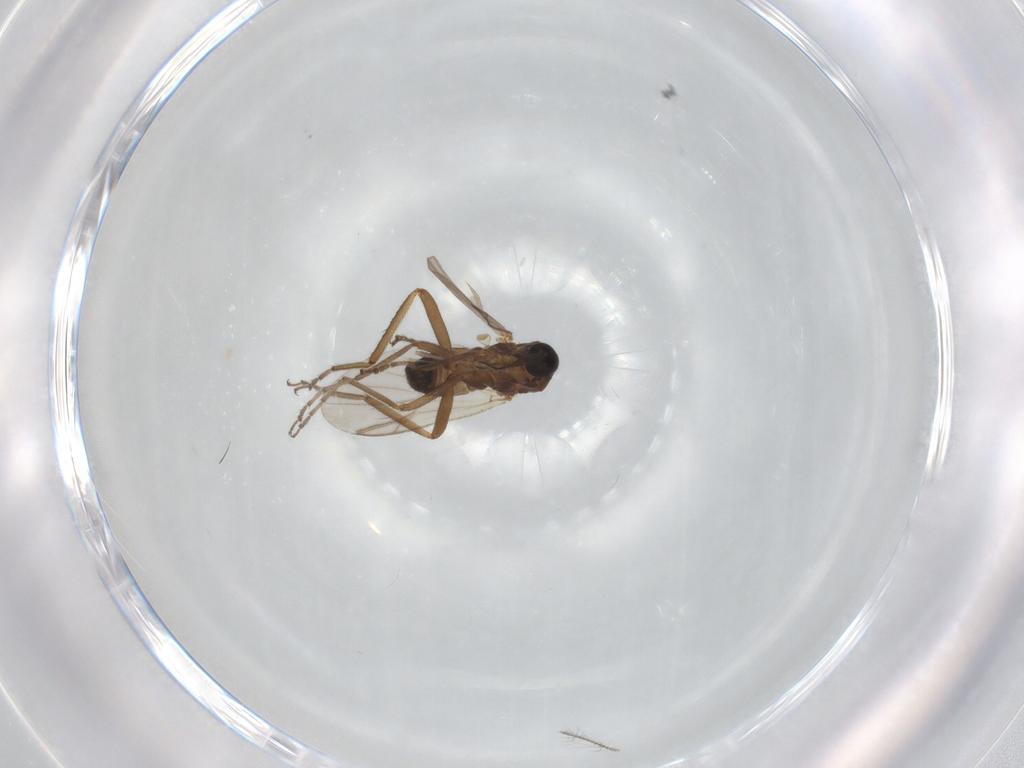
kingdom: Animalia
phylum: Arthropoda
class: Insecta
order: Diptera
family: Ceratopogonidae
